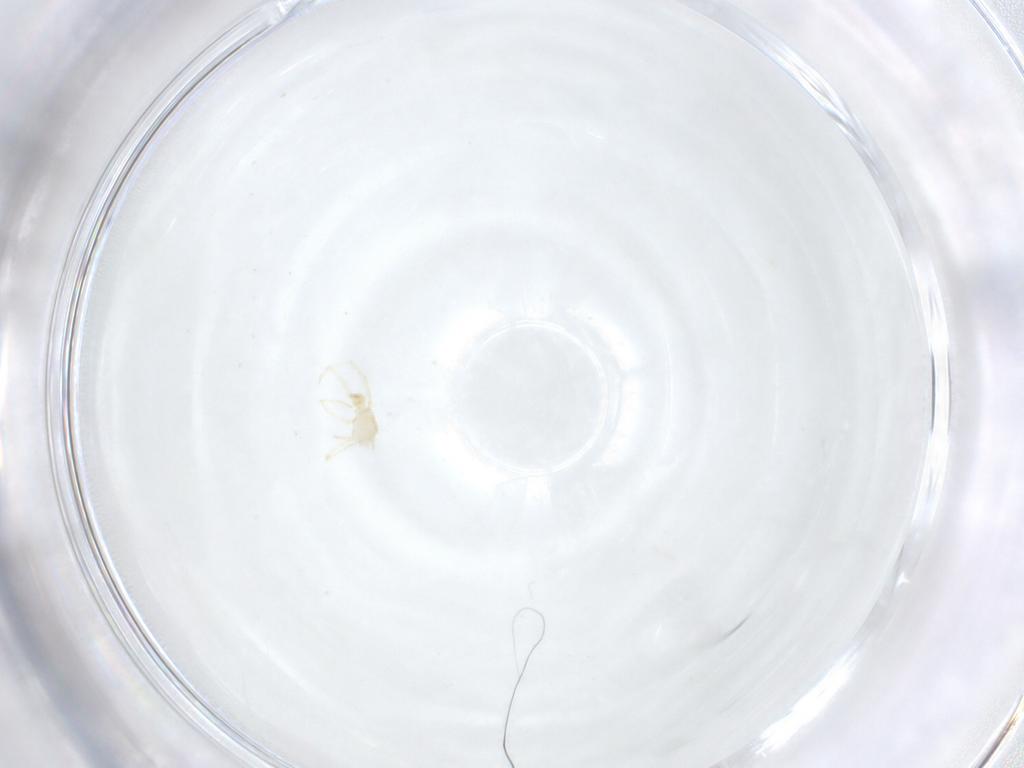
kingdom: Animalia
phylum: Arthropoda
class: Arachnida
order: Trombidiformes
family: Erythraeidae
